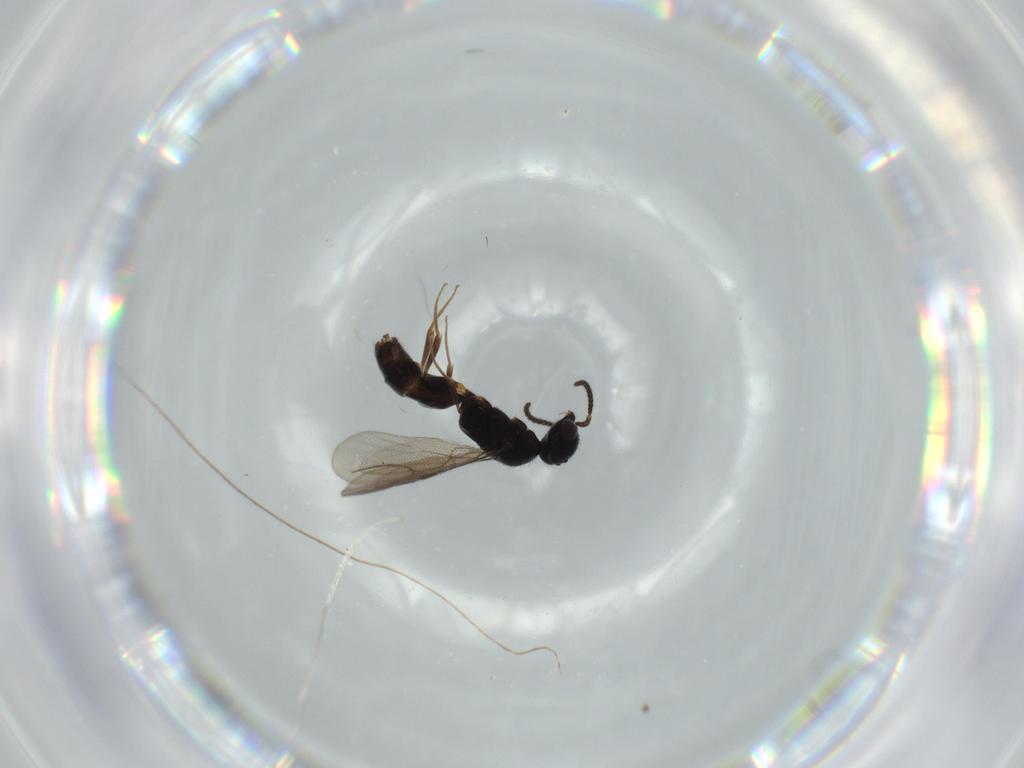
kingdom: Animalia
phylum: Arthropoda
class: Insecta
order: Hymenoptera
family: Bethylidae
